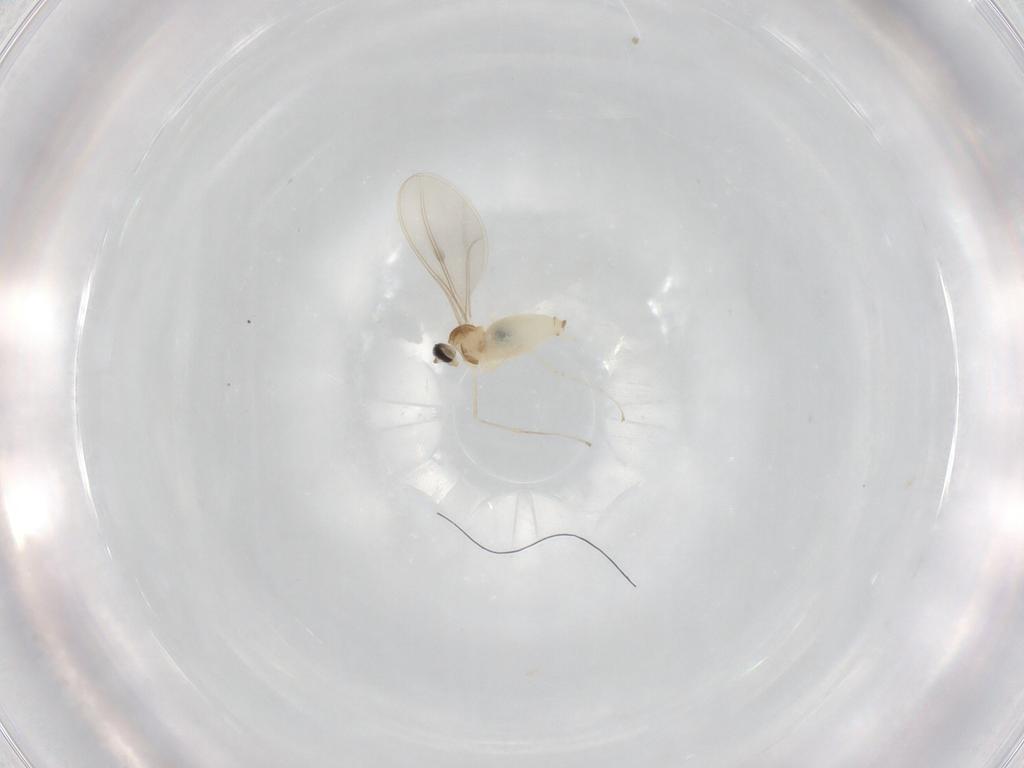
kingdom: Animalia
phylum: Arthropoda
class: Insecta
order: Diptera
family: Cecidomyiidae
